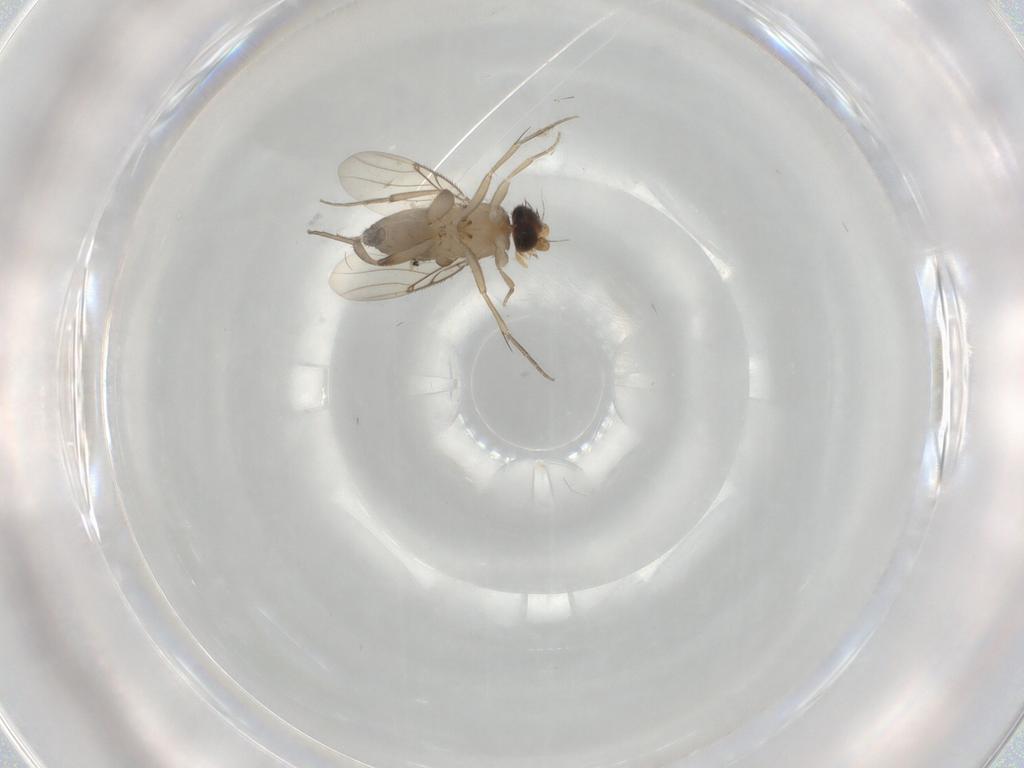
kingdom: Animalia
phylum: Arthropoda
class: Insecta
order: Diptera
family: Phoridae
